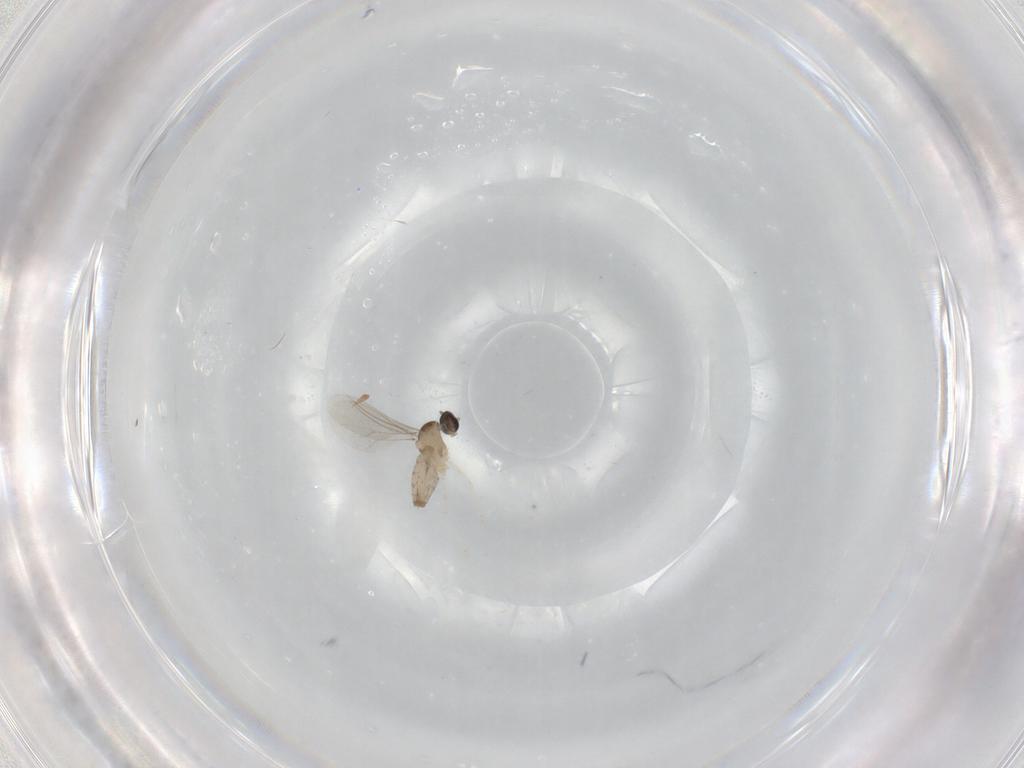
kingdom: Animalia
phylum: Arthropoda
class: Insecta
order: Diptera
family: Cecidomyiidae
